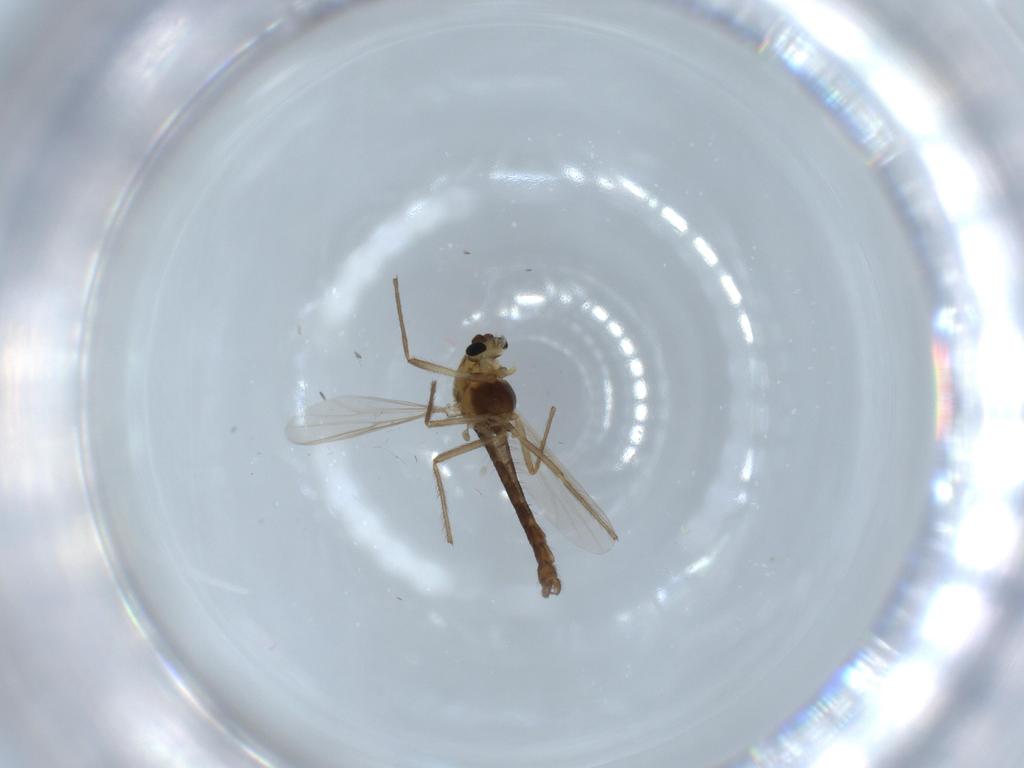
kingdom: Animalia
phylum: Arthropoda
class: Insecta
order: Diptera
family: Chironomidae
